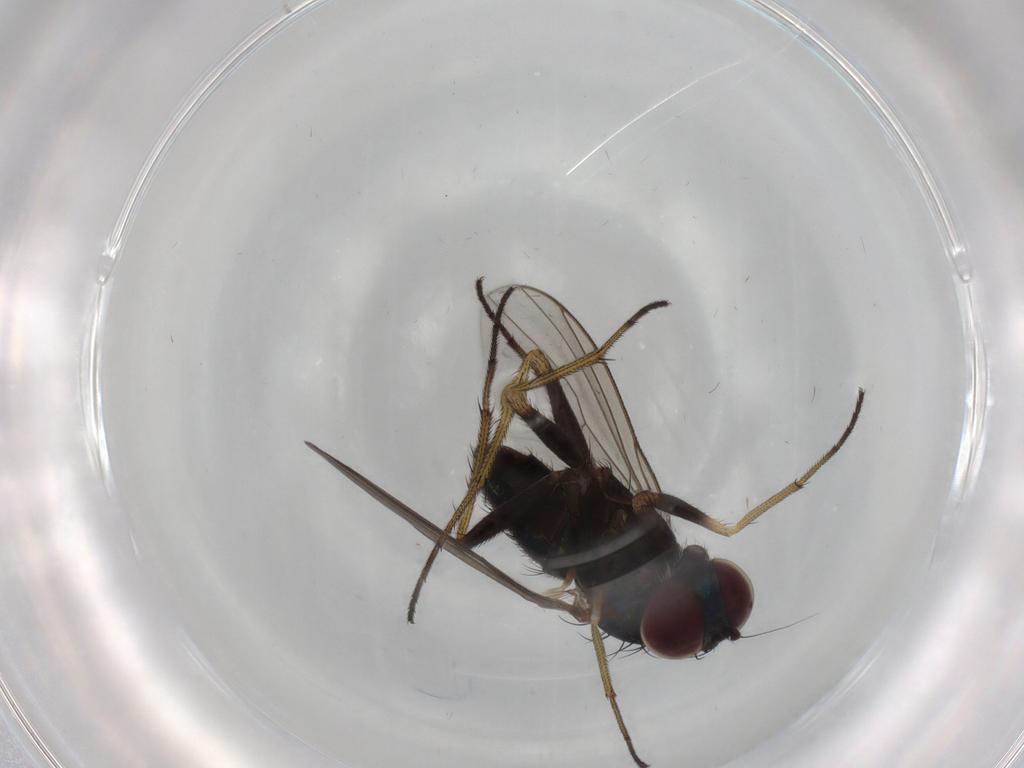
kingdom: Animalia
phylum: Arthropoda
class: Insecta
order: Diptera
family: Dolichopodidae
